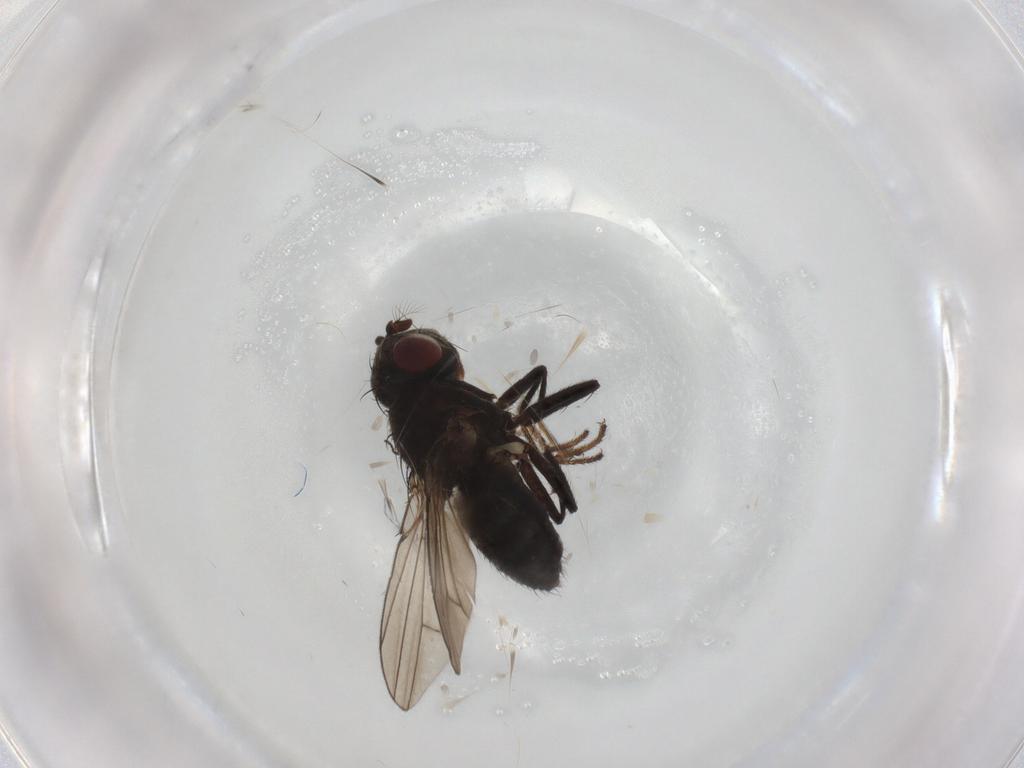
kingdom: Animalia
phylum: Arthropoda
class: Insecta
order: Diptera
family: Ephydridae
